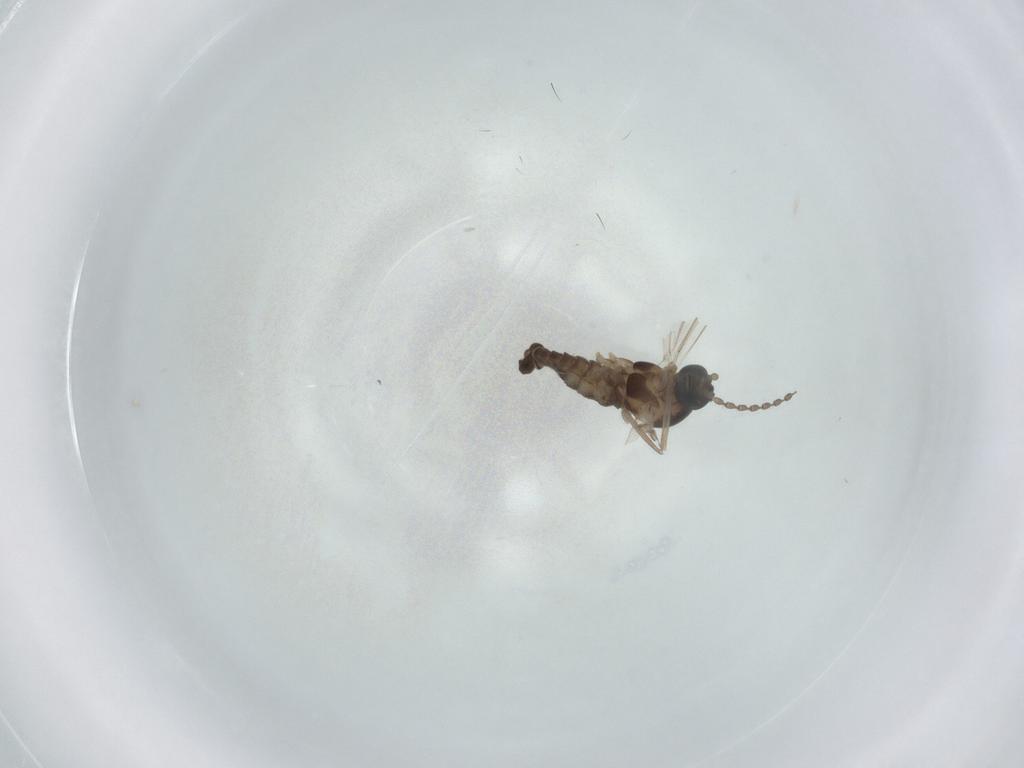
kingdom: Animalia
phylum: Arthropoda
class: Insecta
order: Diptera
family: Cecidomyiidae
